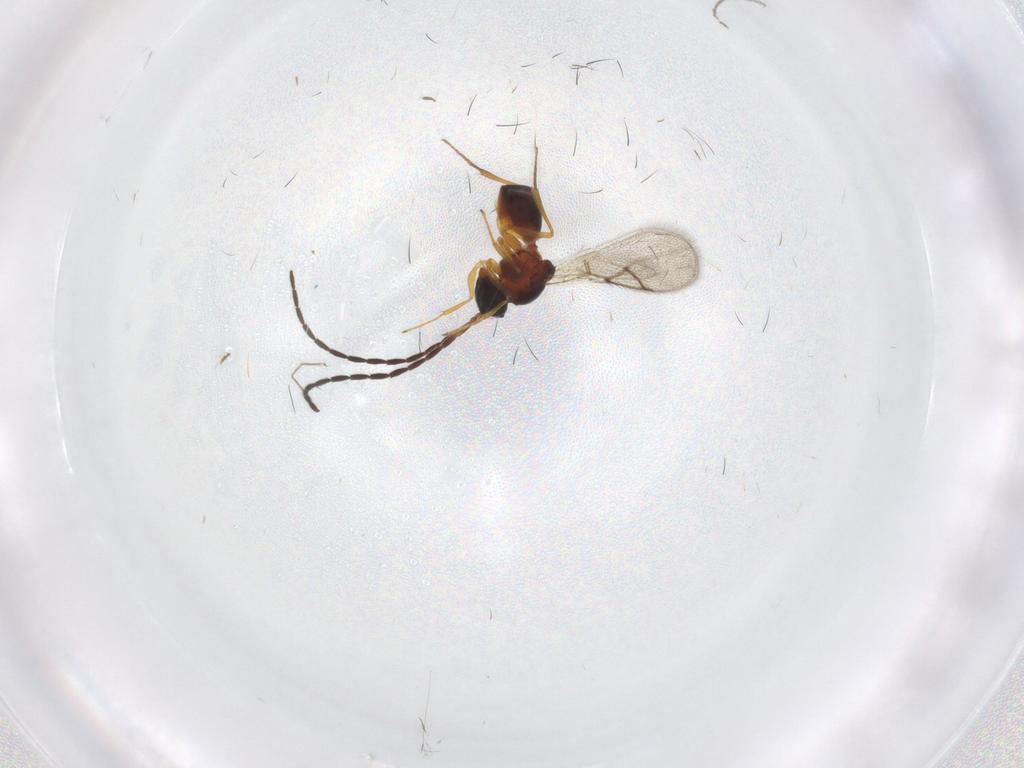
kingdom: Animalia
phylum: Arthropoda
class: Insecta
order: Hymenoptera
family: Figitidae
